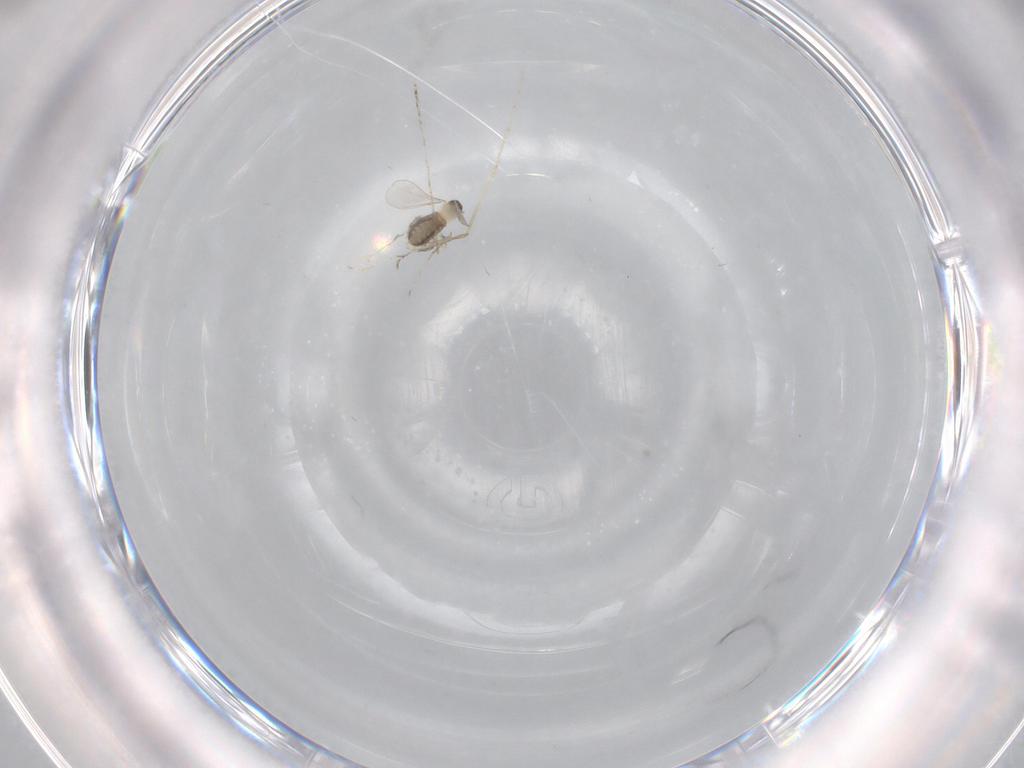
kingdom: Animalia
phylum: Arthropoda
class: Insecta
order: Diptera
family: Psychodidae
